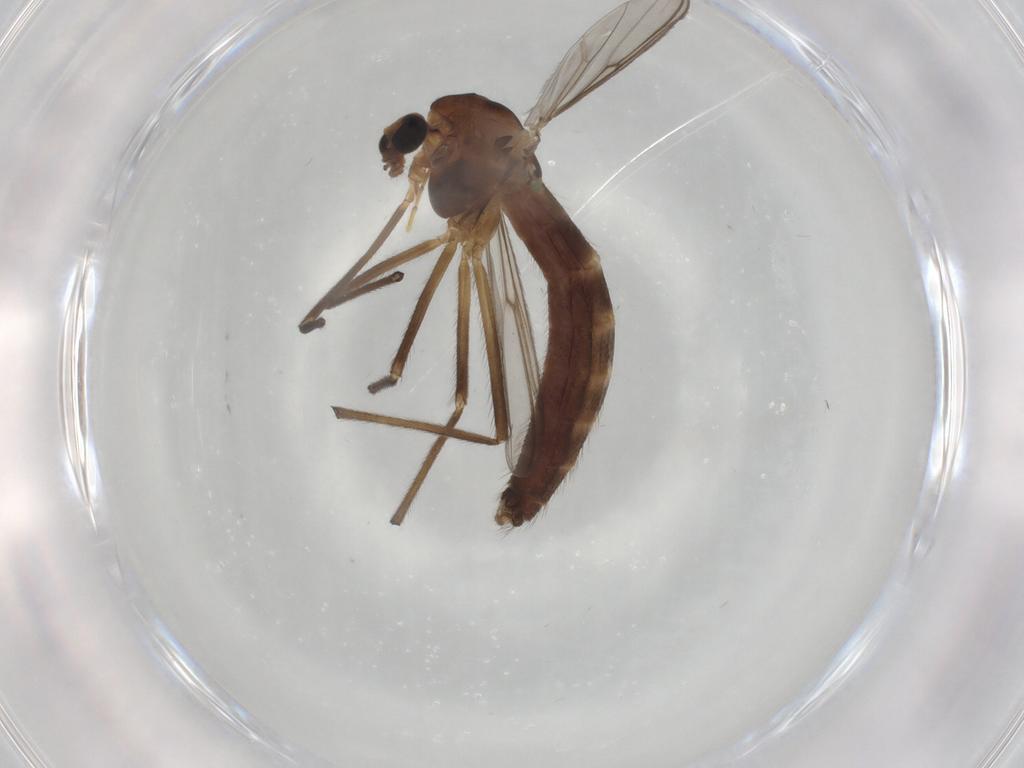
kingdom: Animalia
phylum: Arthropoda
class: Insecta
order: Diptera
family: Chironomidae
